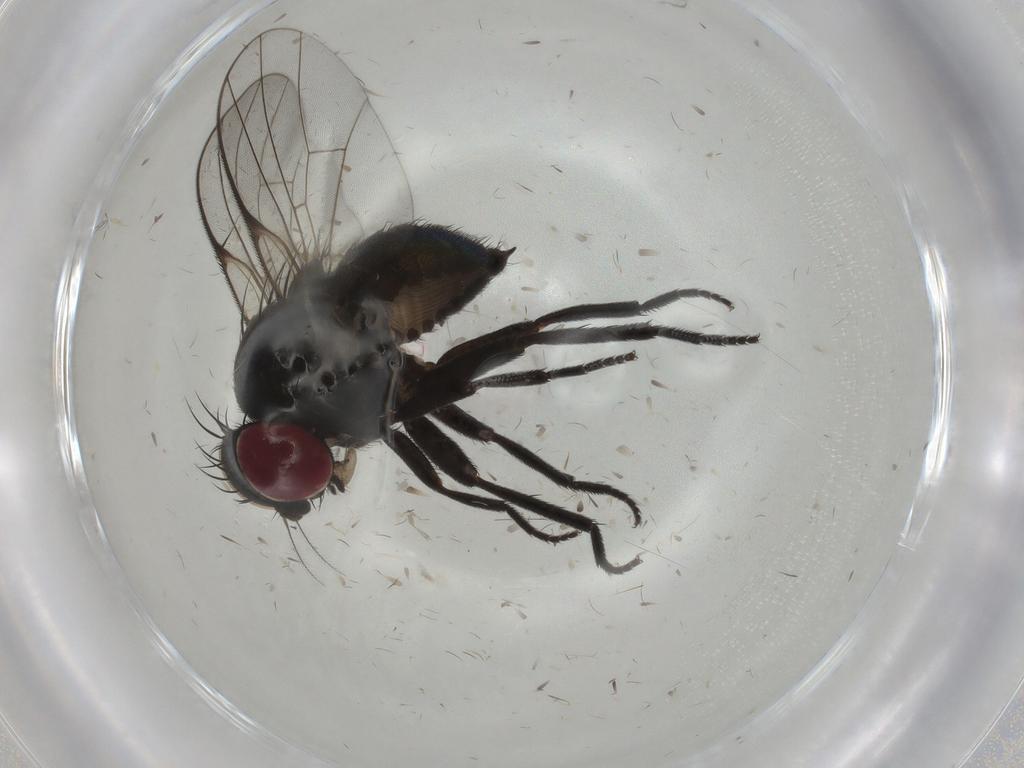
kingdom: Animalia
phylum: Arthropoda
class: Insecta
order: Diptera
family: Agromyzidae
